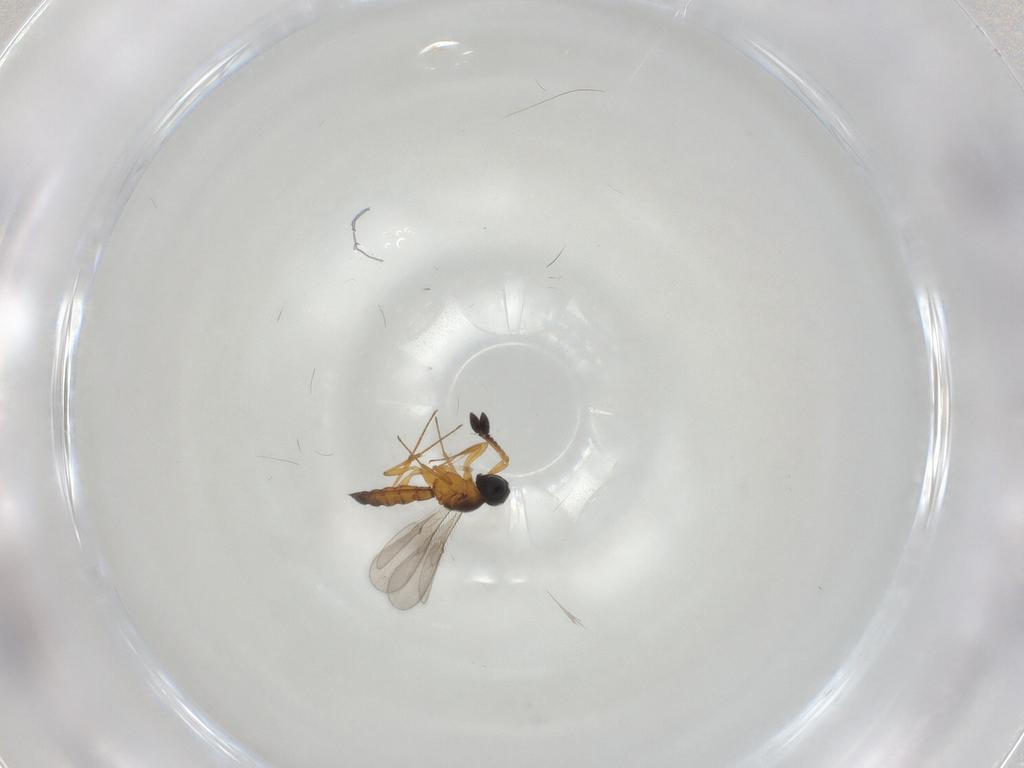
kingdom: Animalia
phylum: Arthropoda
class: Insecta
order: Hymenoptera
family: Scelionidae
